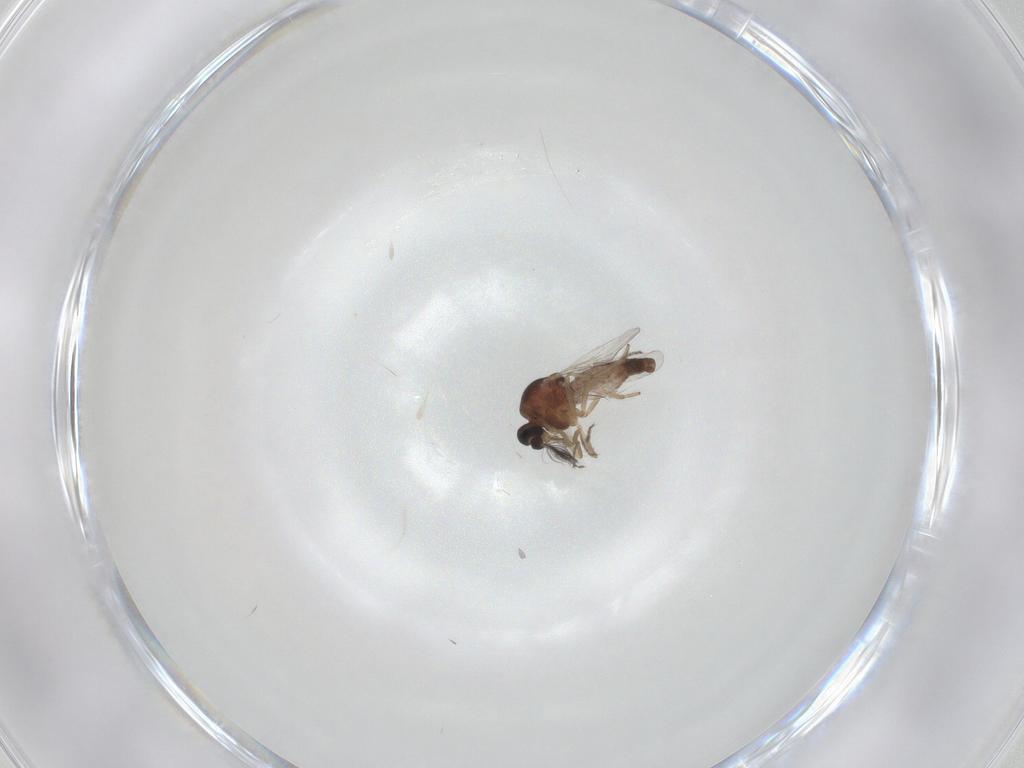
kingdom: Animalia
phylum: Arthropoda
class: Insecta
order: Diptera
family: Ceratopogonidae
